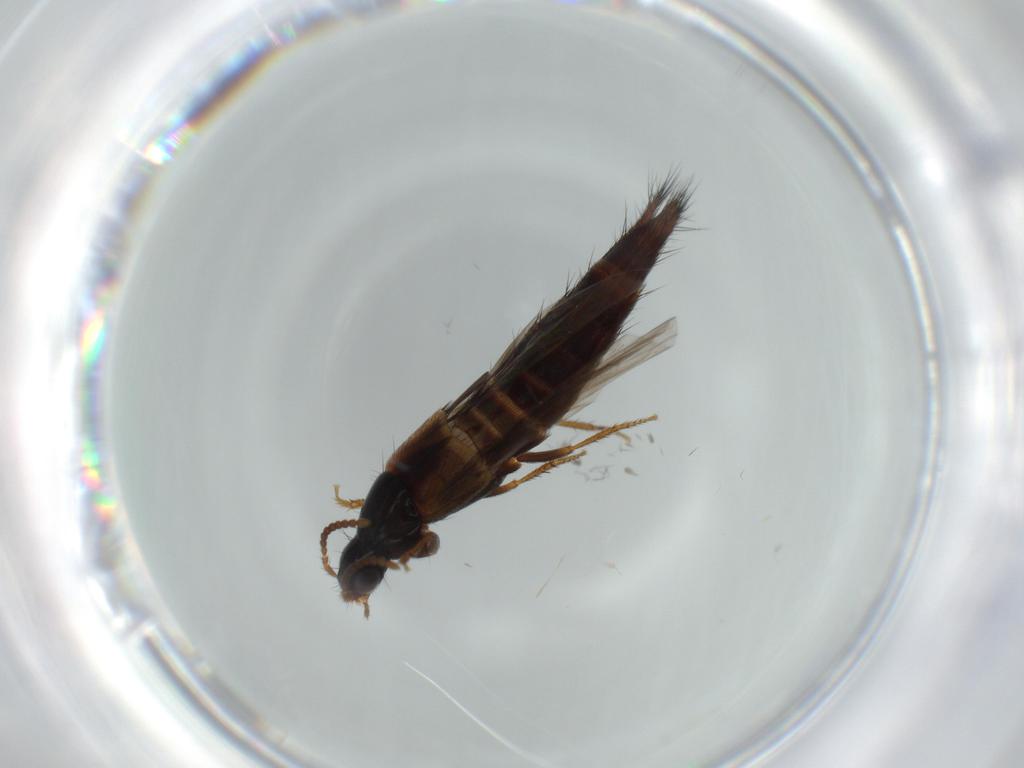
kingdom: Animalia
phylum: Arthropoda
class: Insecta
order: Coleoptera
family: Staphylinidae
